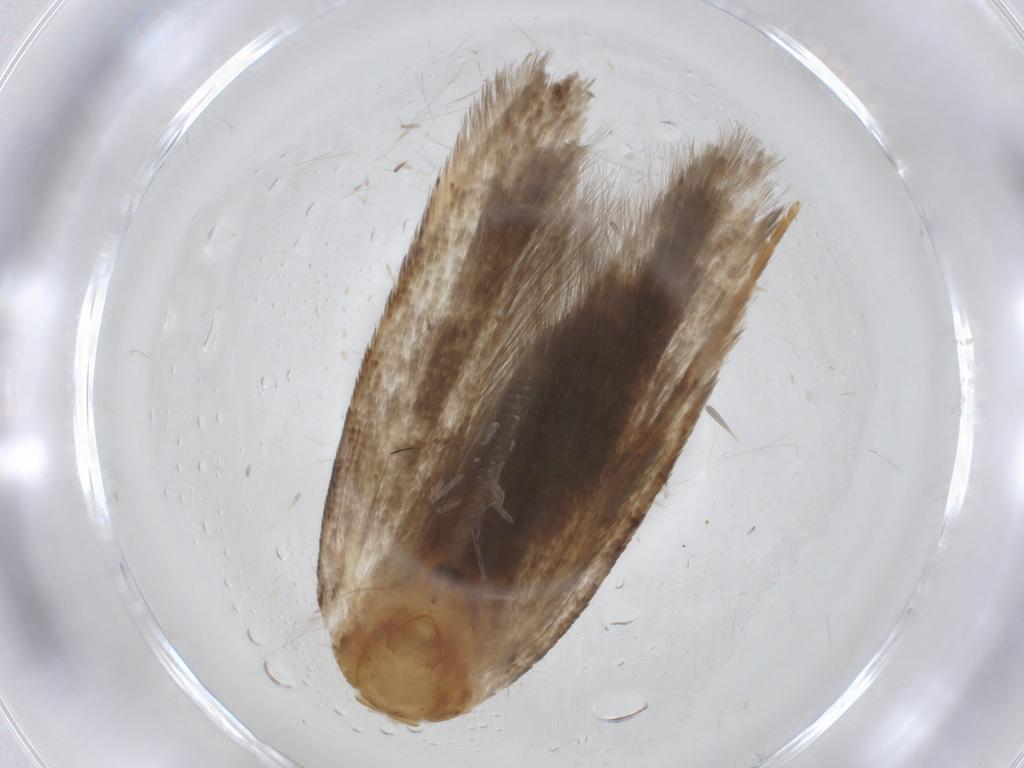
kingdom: Animalia
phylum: Arthropoda
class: Insecta
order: Lepidoptera
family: Gelechiidae
